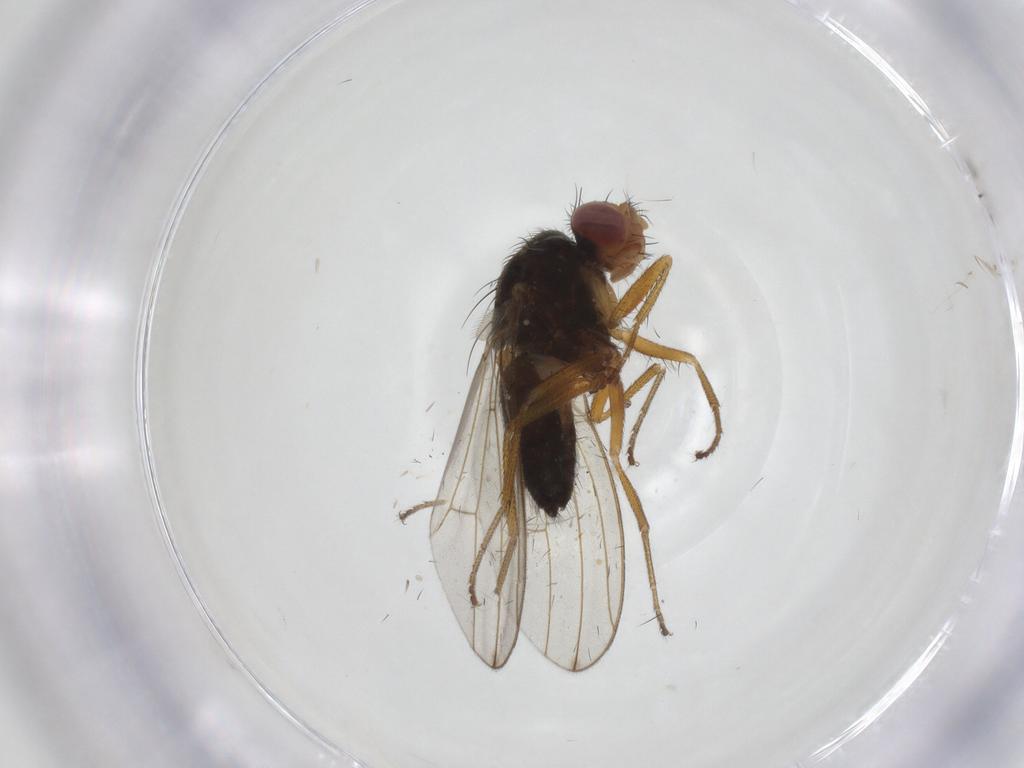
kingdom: Animalia
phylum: Arthropoda
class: Insecta
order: Diptera
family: Drosophilidae
